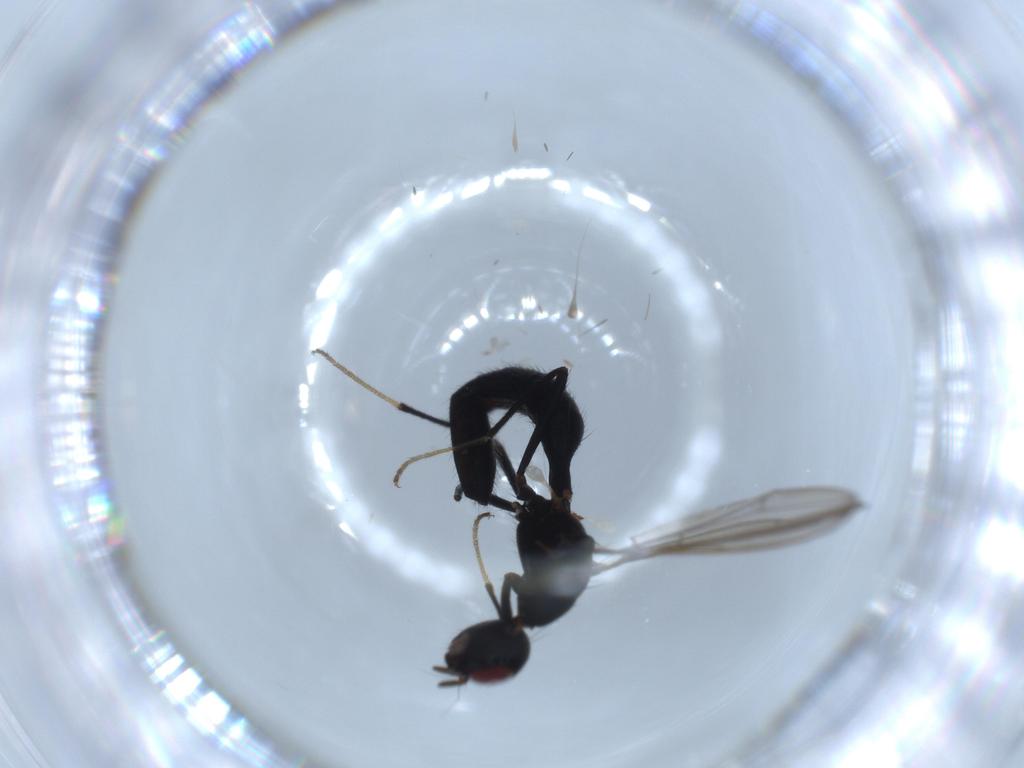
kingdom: Animalia
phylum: Arthropoda
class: Insecta
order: Diptera
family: Richardiidae
